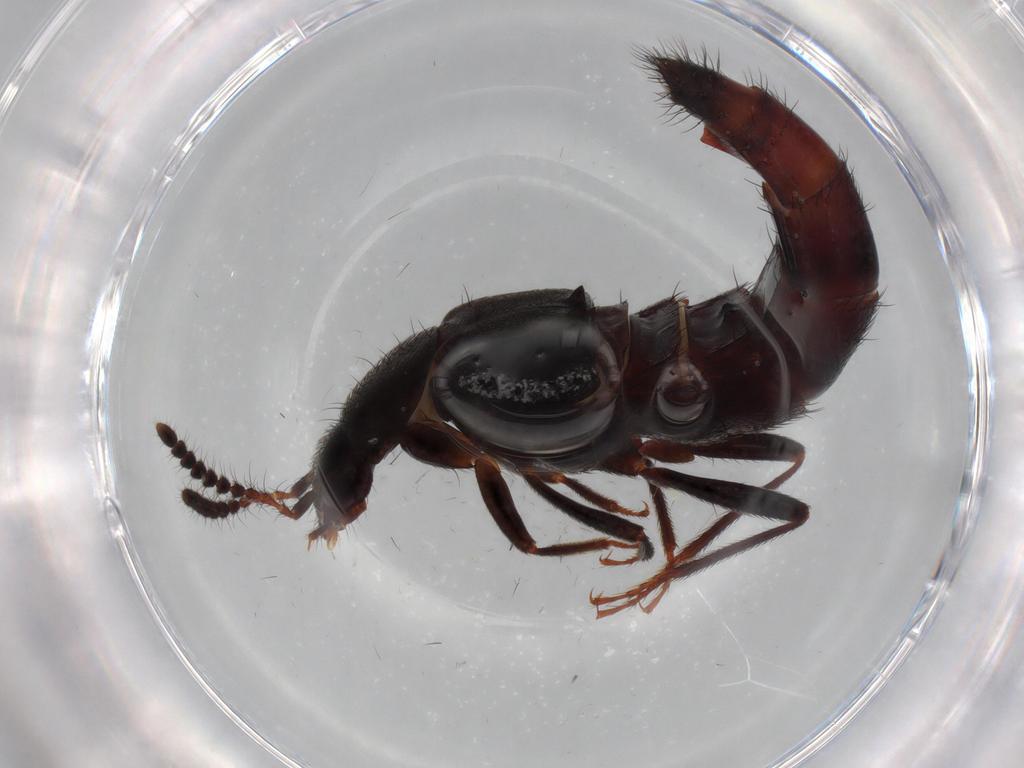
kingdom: Animalia
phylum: Arthropoda
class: Insecta
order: Coleoptera
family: Staphylinidae
